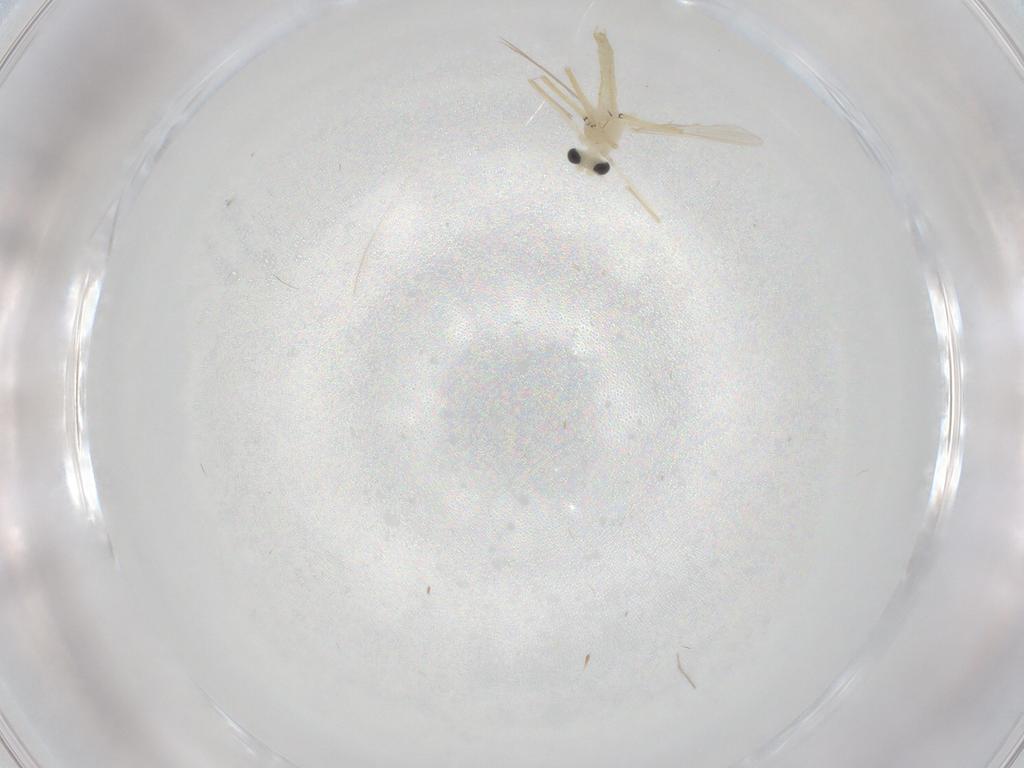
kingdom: Animalia
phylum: Arthropoda
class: Insecta
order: Diptera
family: Chironomidae
